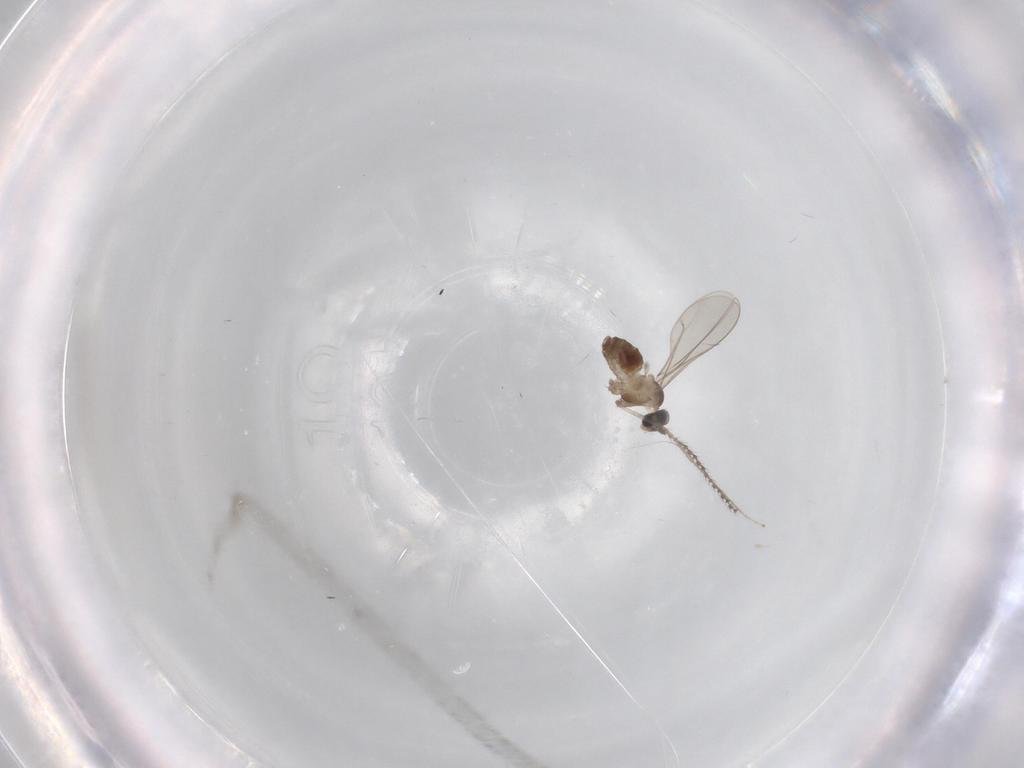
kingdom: Animalia
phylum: Arthropoda
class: Insecta
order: Diptera
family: Cecidomyiidae
